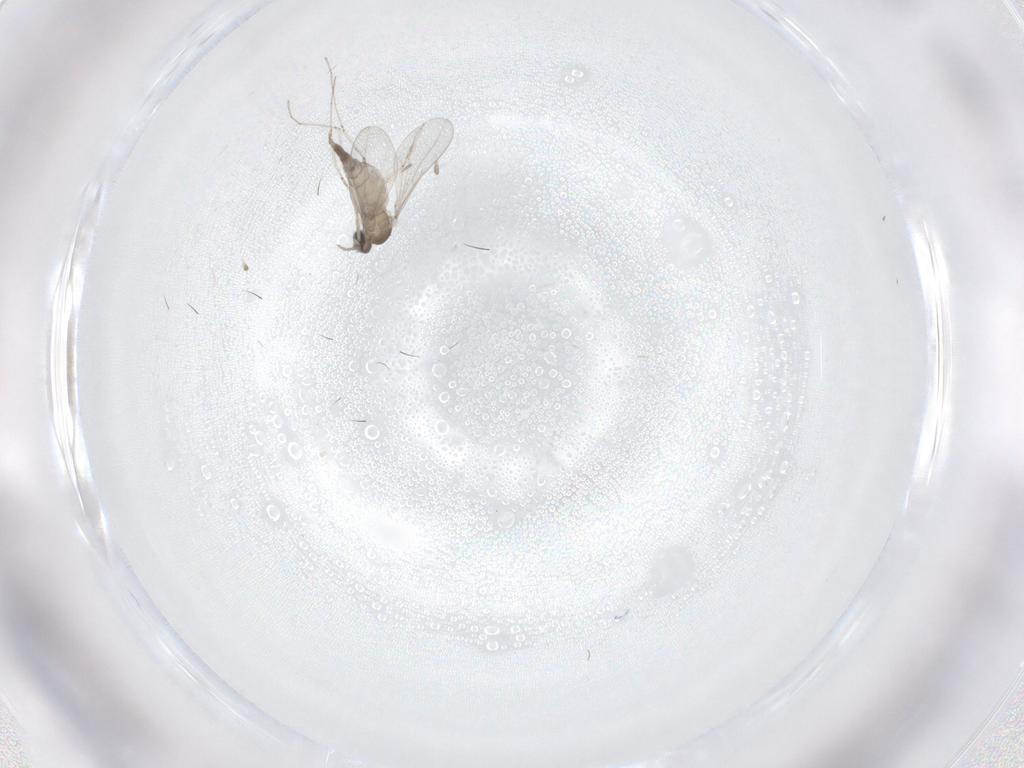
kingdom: Animalia
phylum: Arthropoda
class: Insecta
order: Diptera
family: Cecidomyiidae
